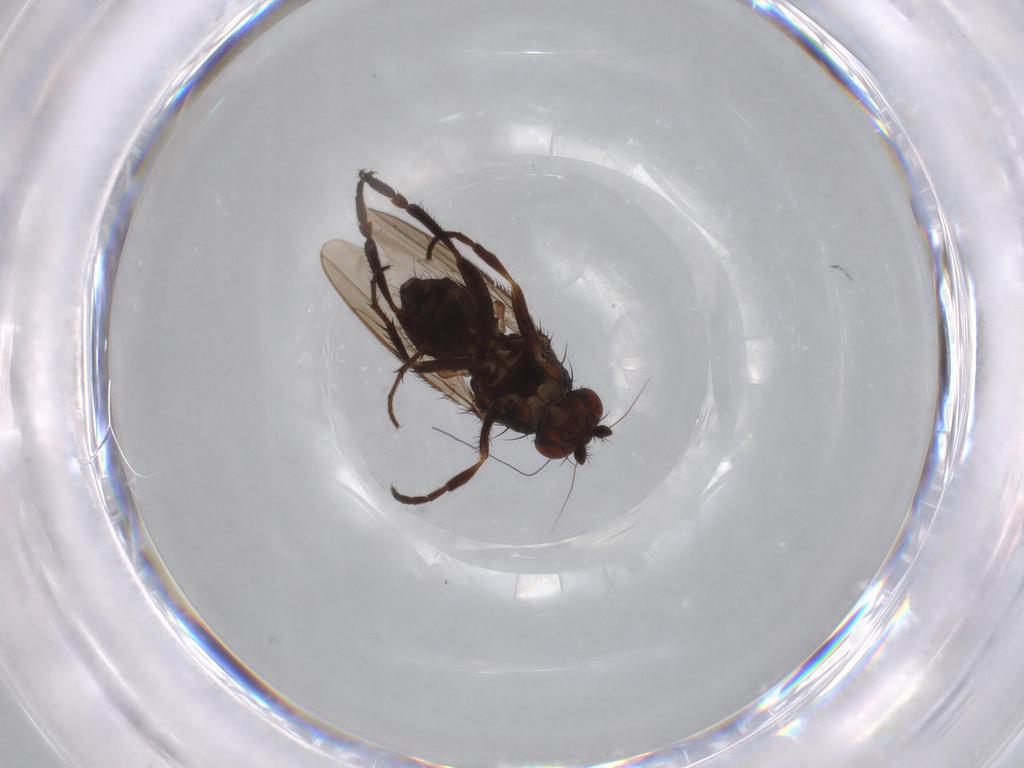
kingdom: Animalia
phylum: Arthropoda
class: Insecta
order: Diptera
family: Sphaeroceridae
